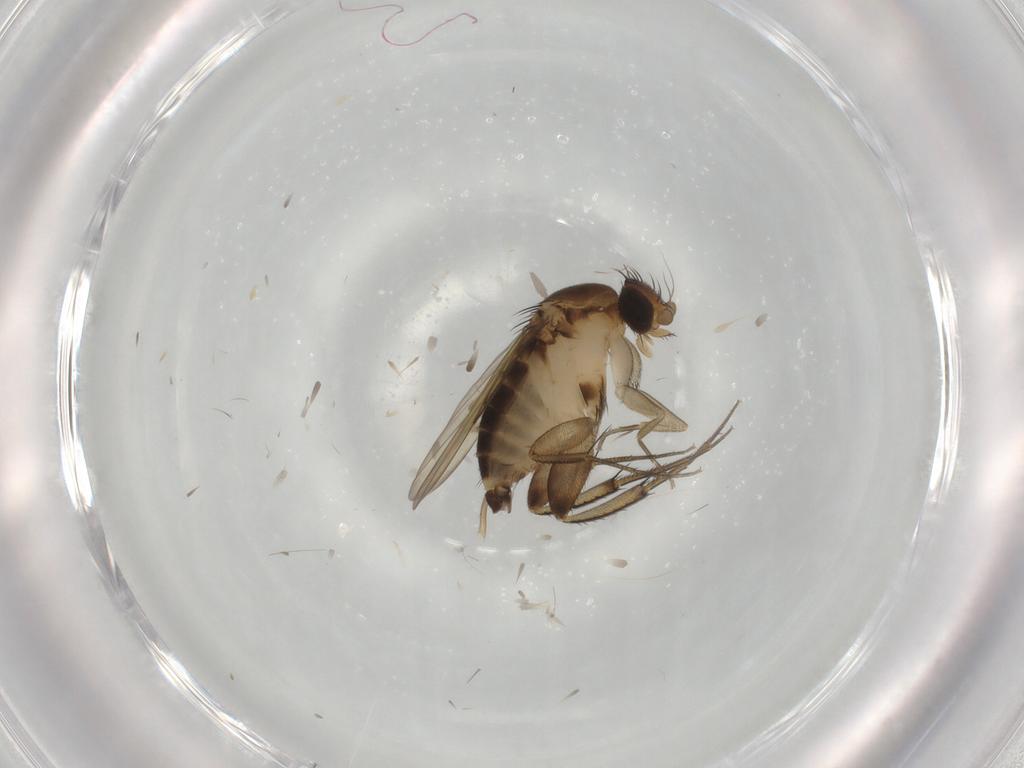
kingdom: Animalia
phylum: Arthropoda
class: Insecta
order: Diptera
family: Phoridae
